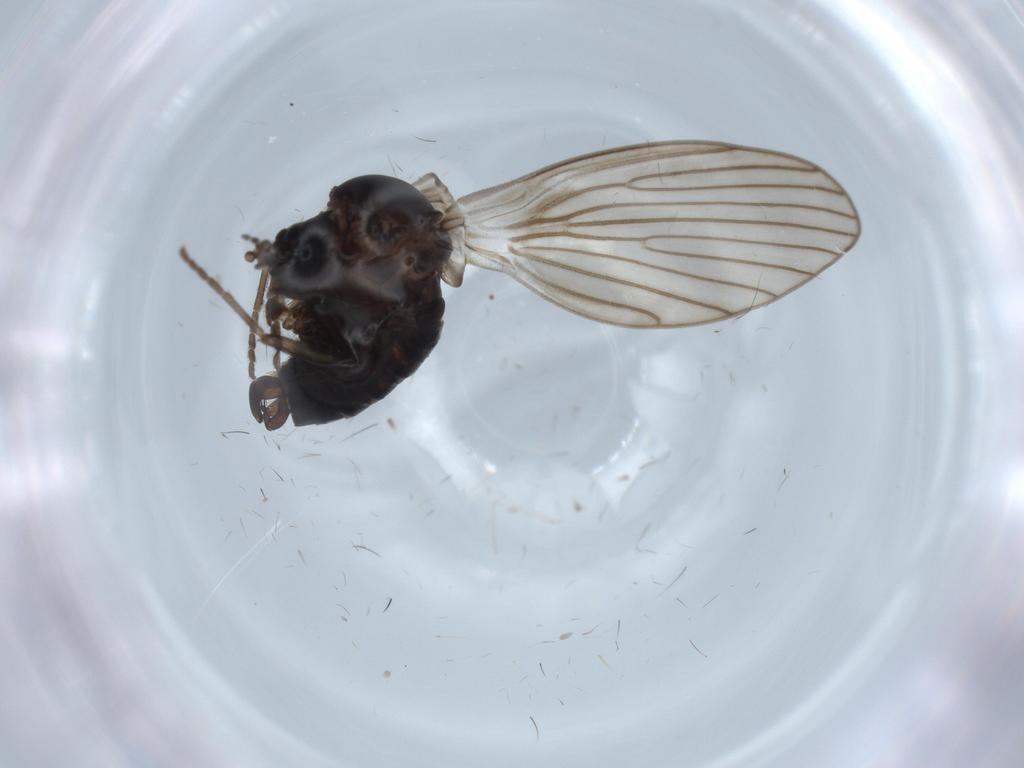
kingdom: Animalia
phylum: Arthropoda
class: Insecta
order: Diptera
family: Psychodidae
